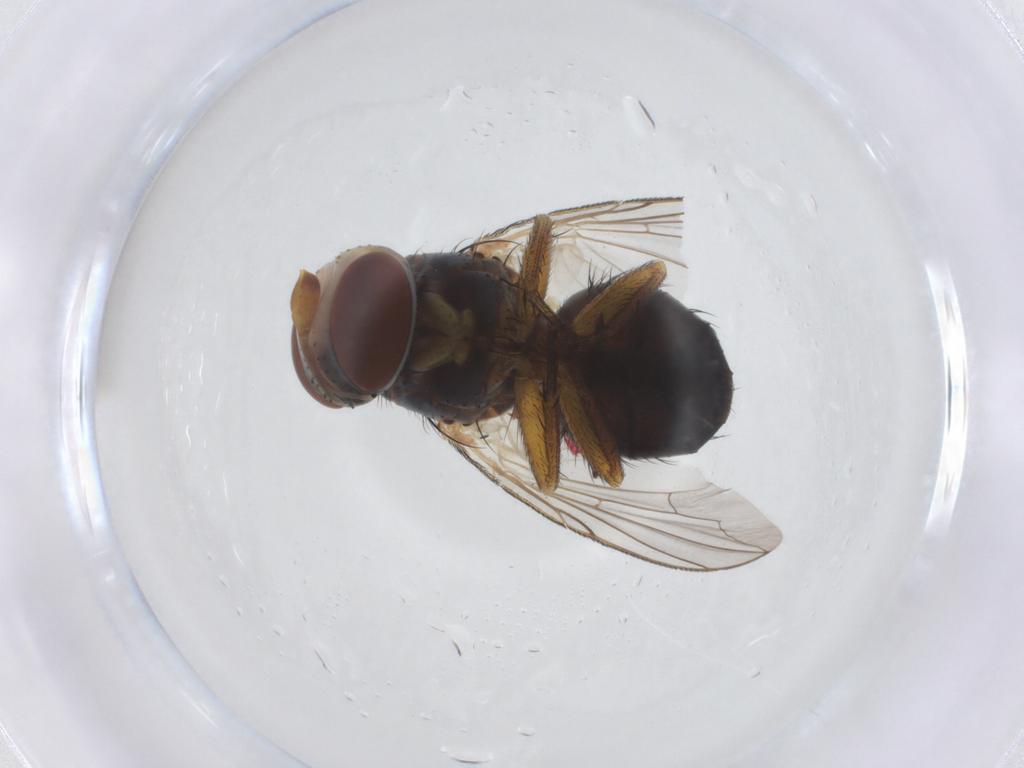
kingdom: Animalia
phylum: Arthropoda
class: Insecta
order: Diptera
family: Tachinidae
